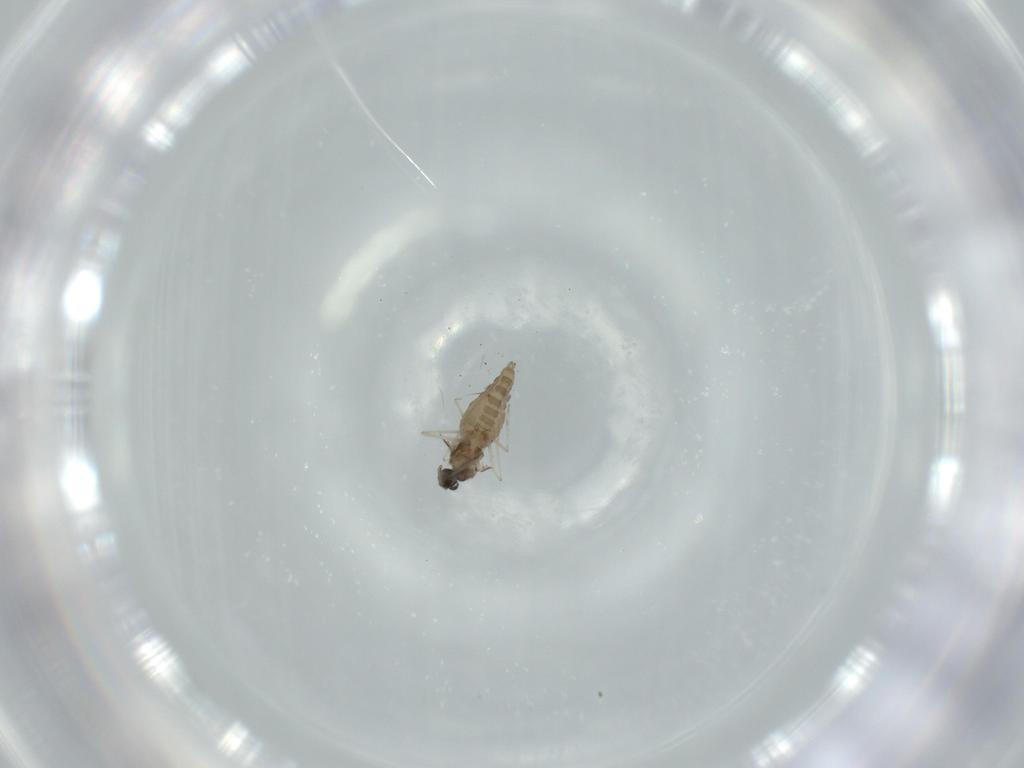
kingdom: Animalia
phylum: Arthropoda
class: Insecta
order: Diptera
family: Cecidomyiidae
